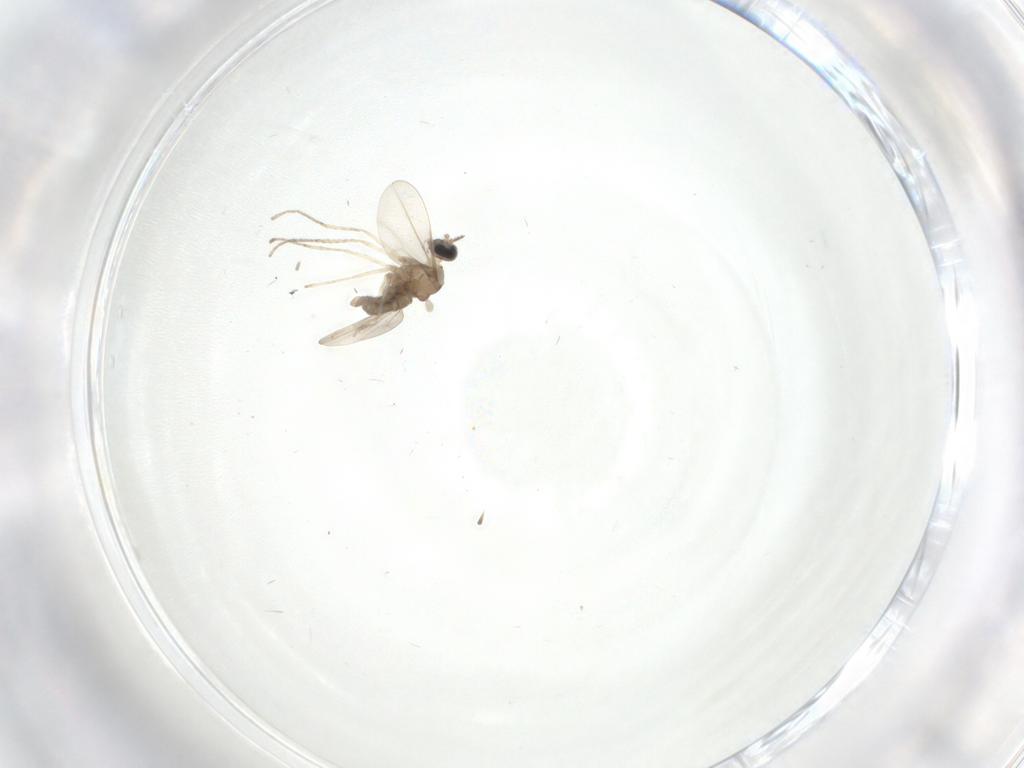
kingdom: Animalia
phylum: Arthropoda
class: Insecta
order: Diptera
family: Cecidomyiidae
